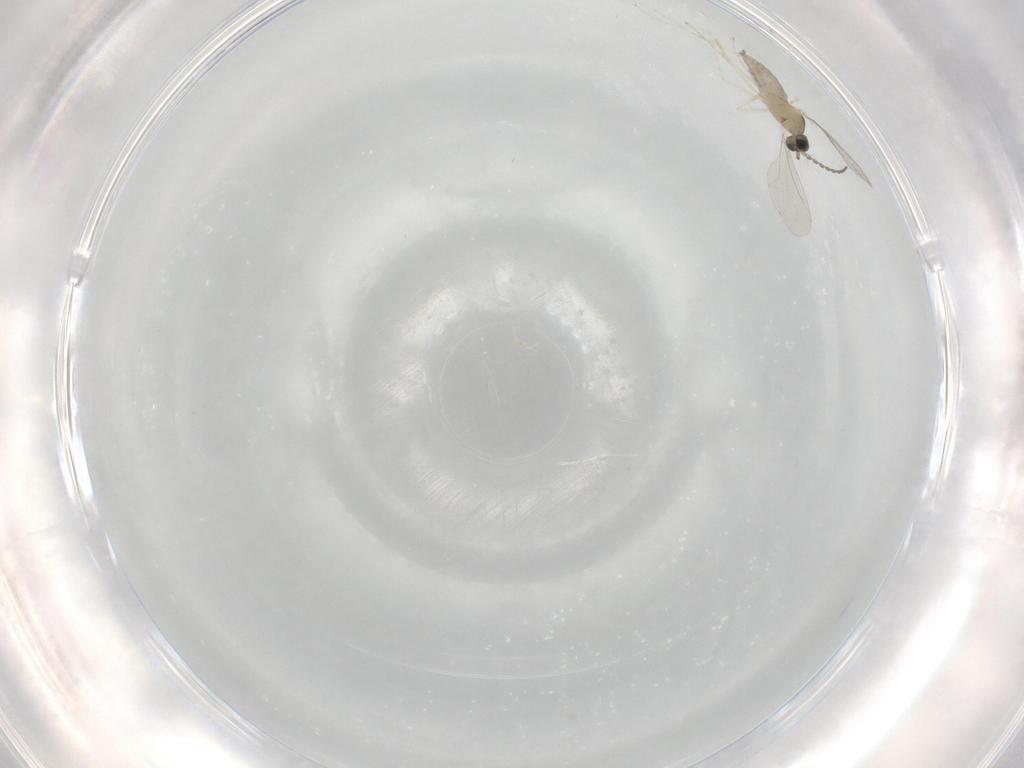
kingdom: Animalia
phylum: Arthropoda
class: Insecta
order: Diptera
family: Cecidomyiidae
